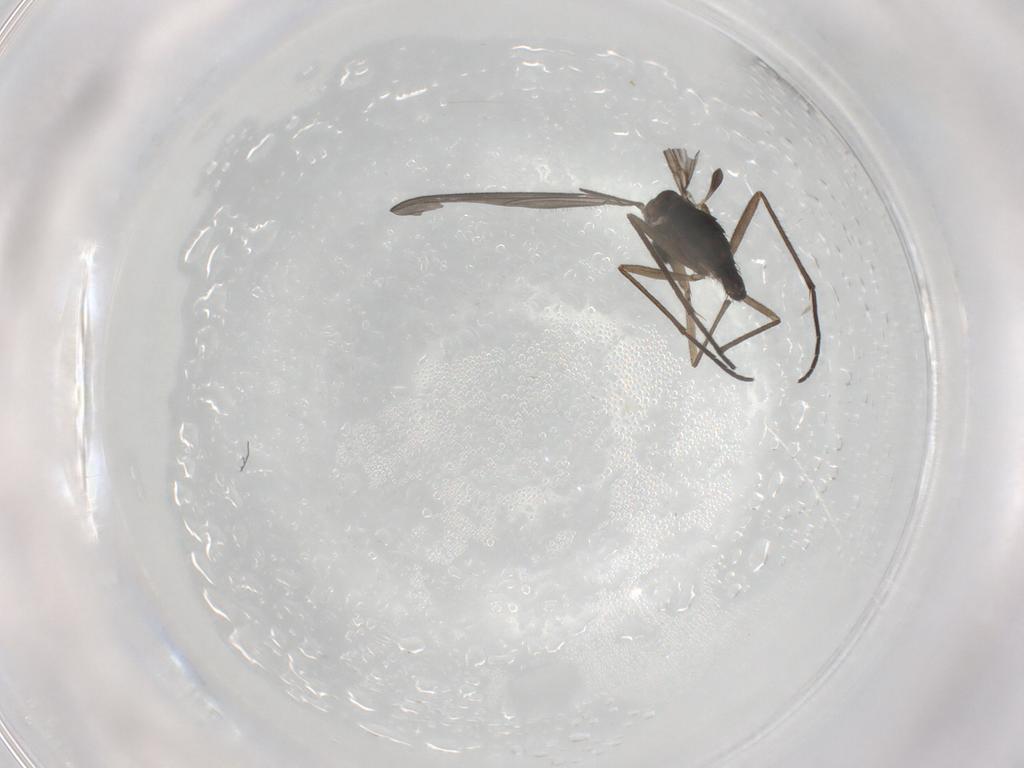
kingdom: Animalia
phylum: Arthropoda
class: Insecta
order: Diptera
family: Sciaridae
